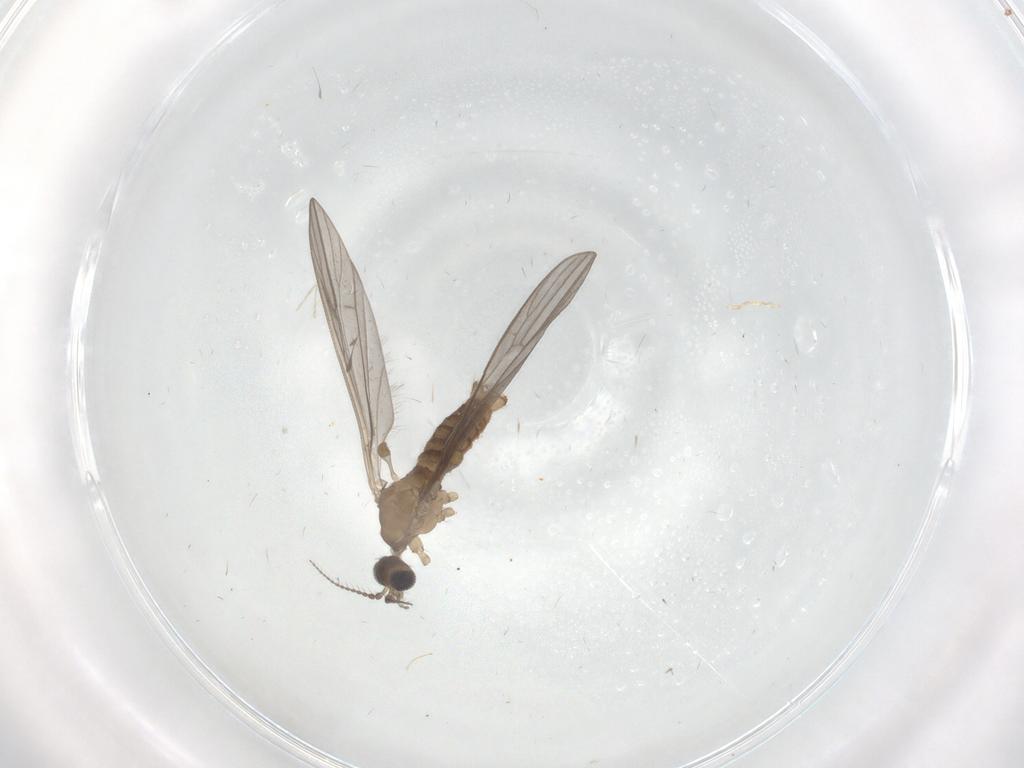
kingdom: Animalia
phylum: Arthropoda
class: Insecta
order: Diptera
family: Limoniidae
